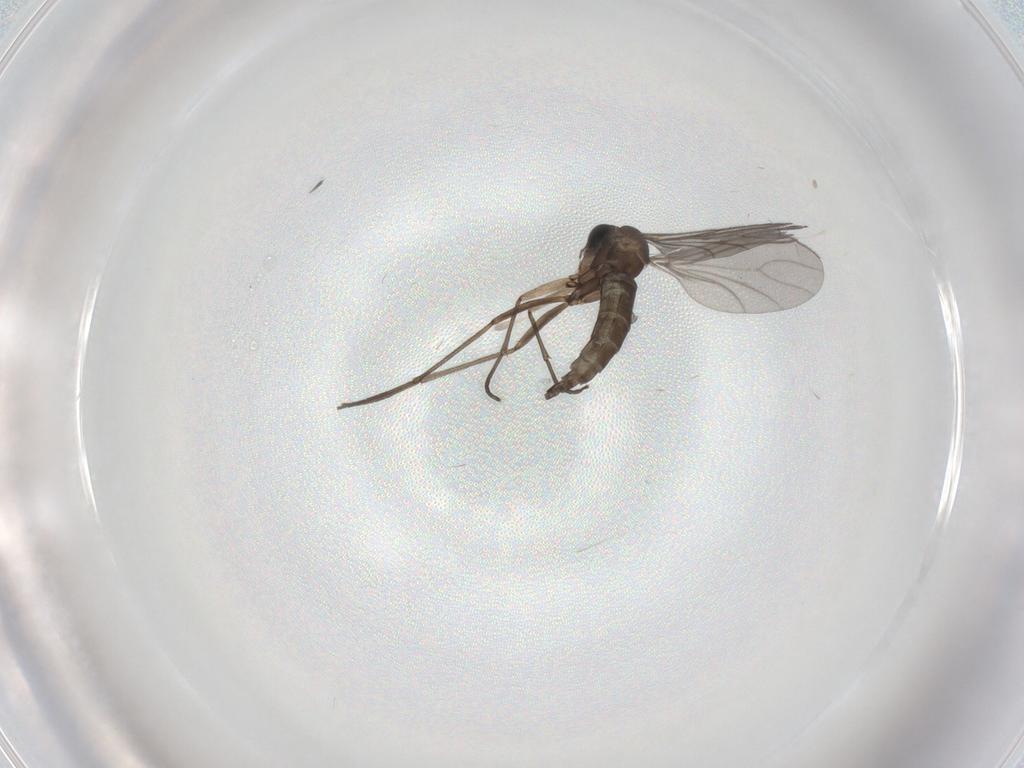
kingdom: Animalia
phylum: Arthropoda
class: Insecta
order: Diptera
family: Sciaridae
